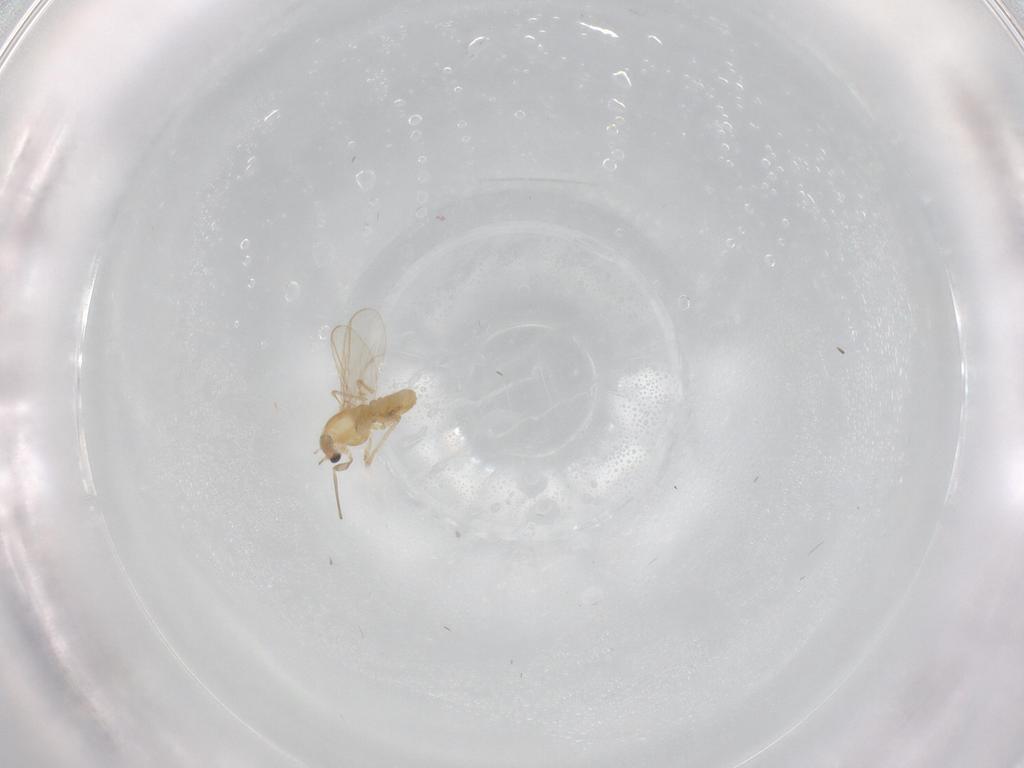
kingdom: Animalia
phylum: Arthropoda
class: Insecta
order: Diptera
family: Chironomidae
